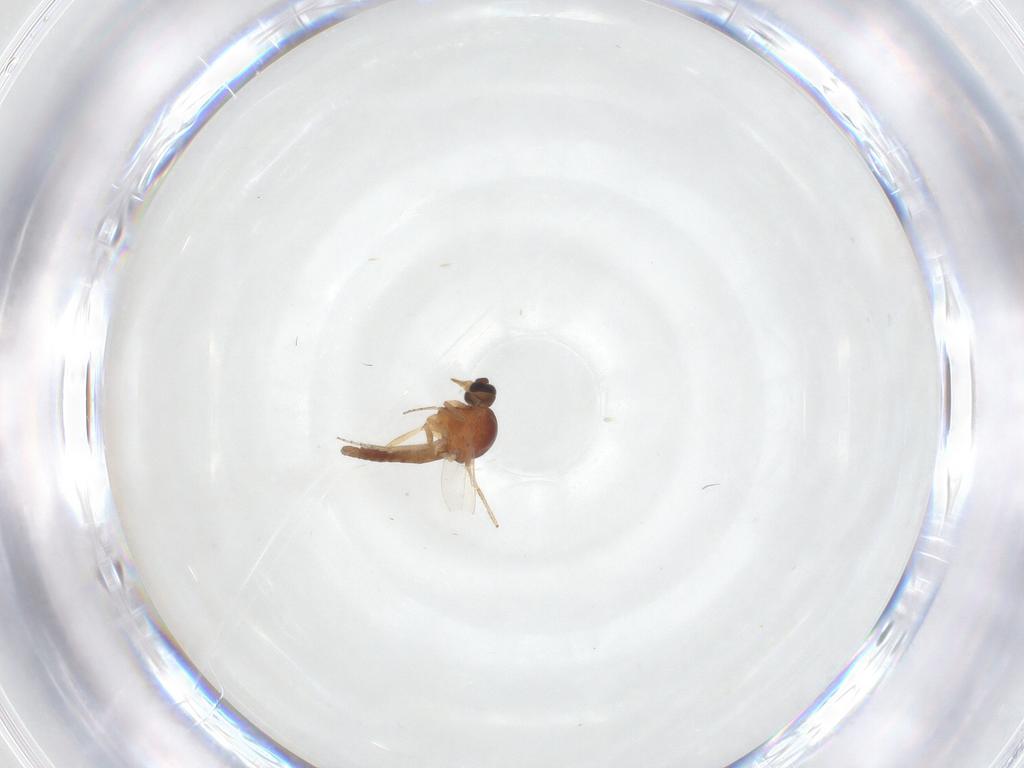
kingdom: Animalia
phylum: Arthropoda
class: Insecta
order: Diptera
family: Ceratopogonidae
